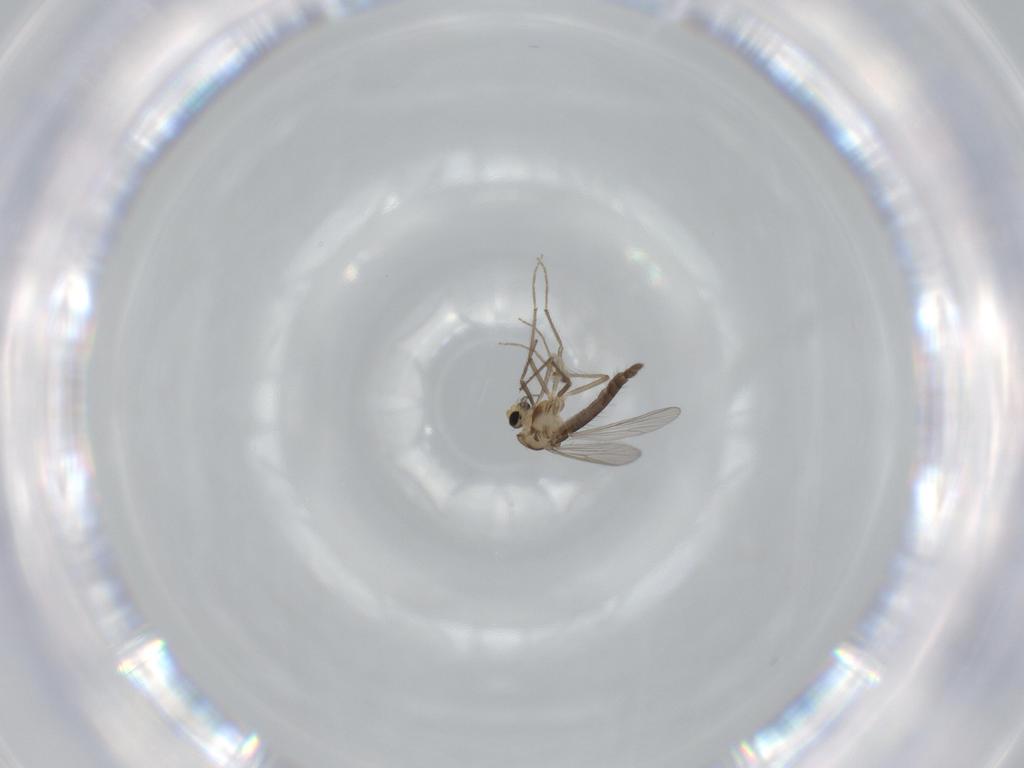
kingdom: Animalia
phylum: Arthropoda
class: Insecta
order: Diptera
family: Chironomidae
